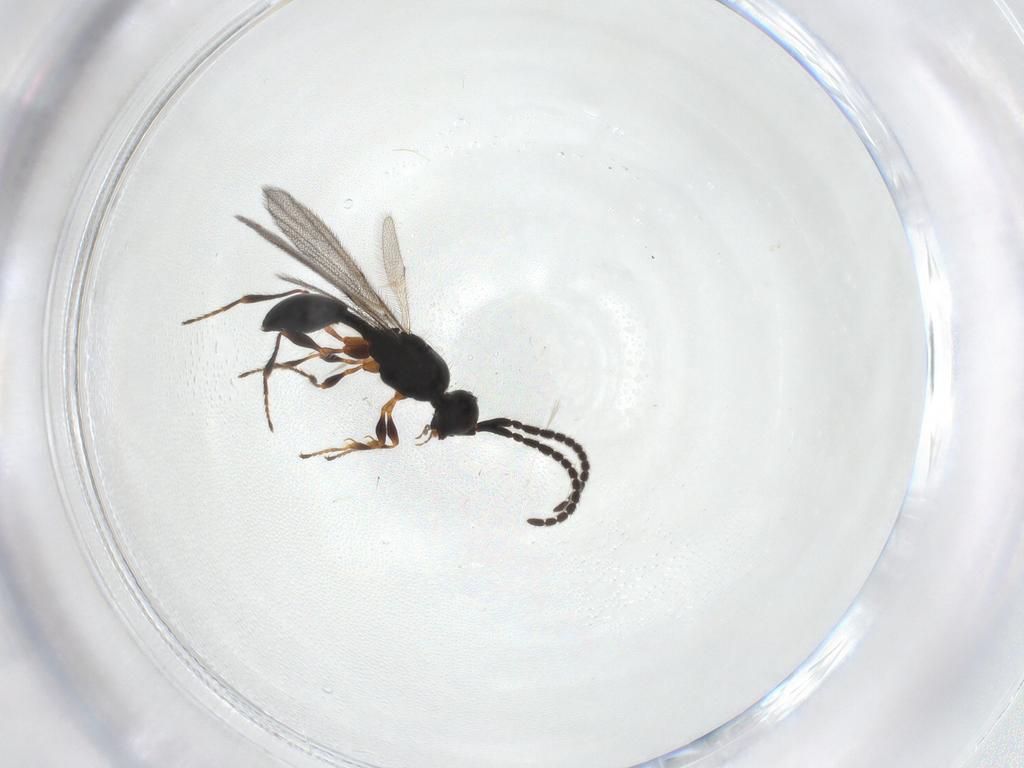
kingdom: Animalia
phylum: Arthropoda
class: Insecta
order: Hymenoptera
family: Diapriidae
